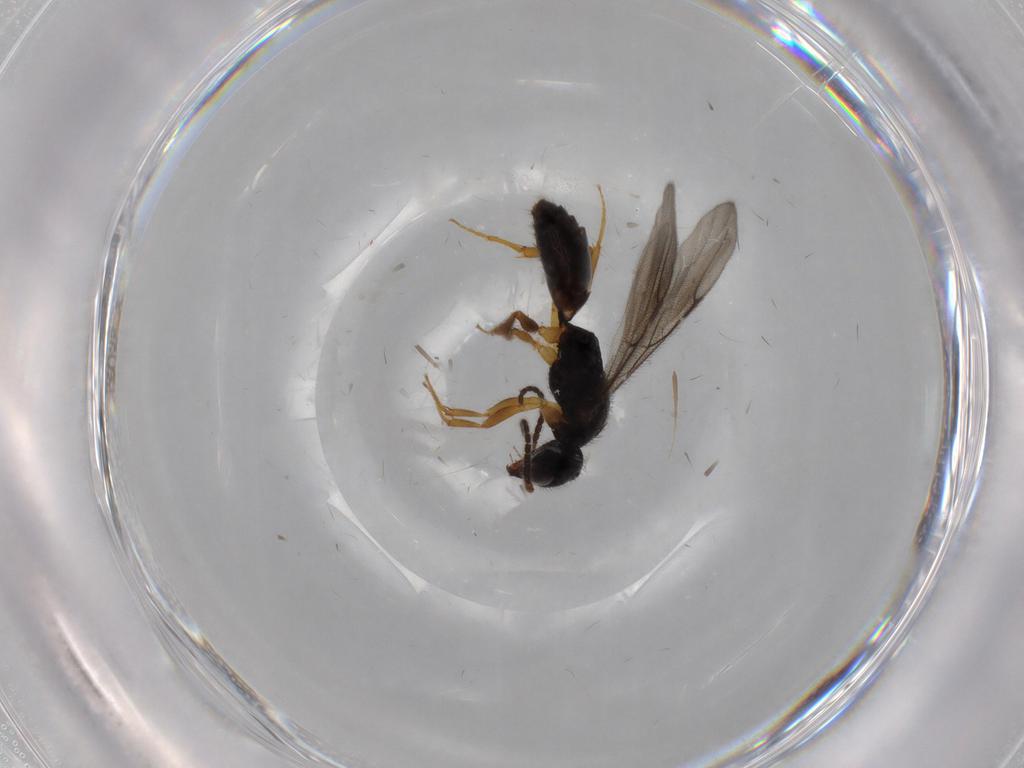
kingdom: Animalia
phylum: Arthropoda
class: Insecta
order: Hymenoptera
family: Bethylidae
